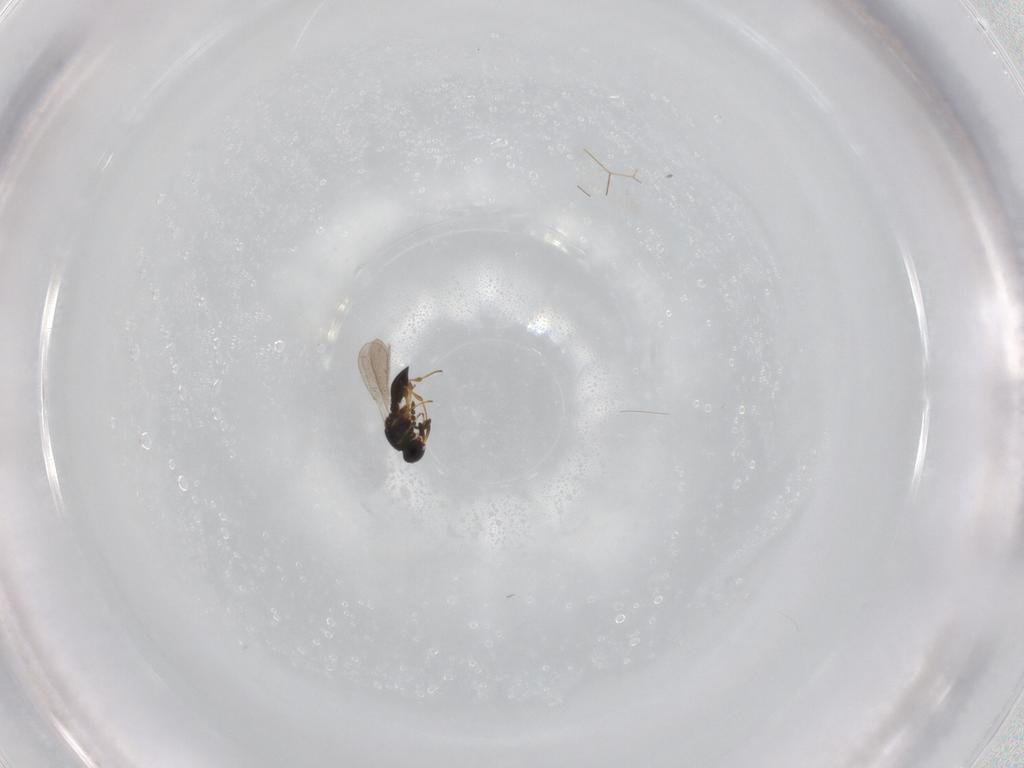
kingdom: Animalia
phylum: Arthropoda
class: Insecta
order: Hymenoptera
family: Platygastridae
